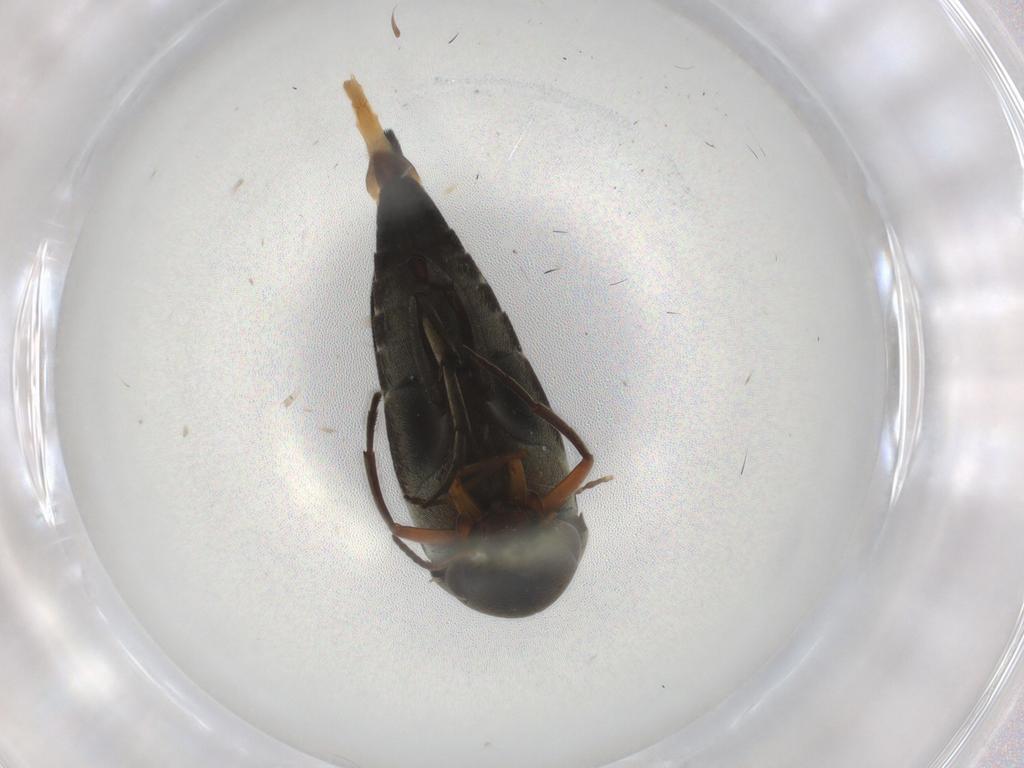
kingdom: Animalia
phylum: Arthropoda
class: Insecta
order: Coleoptera
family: Mordellidae
